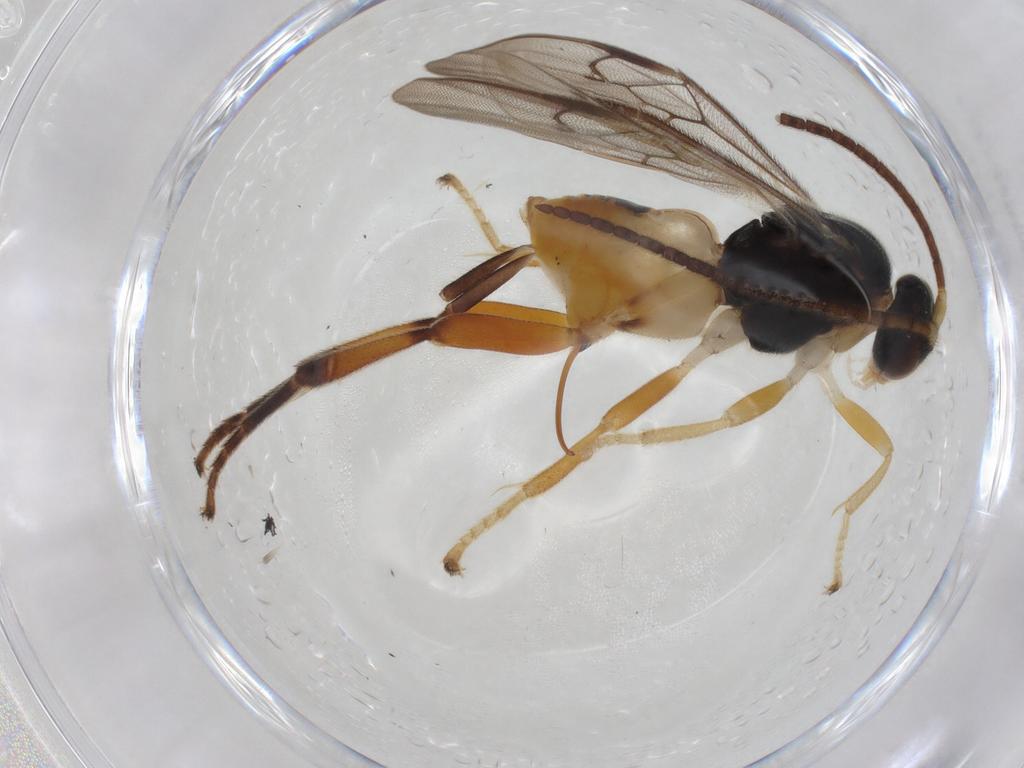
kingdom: Animalia
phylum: Arthropoda
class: Insecta
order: Hymenoptera
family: Braconidae
